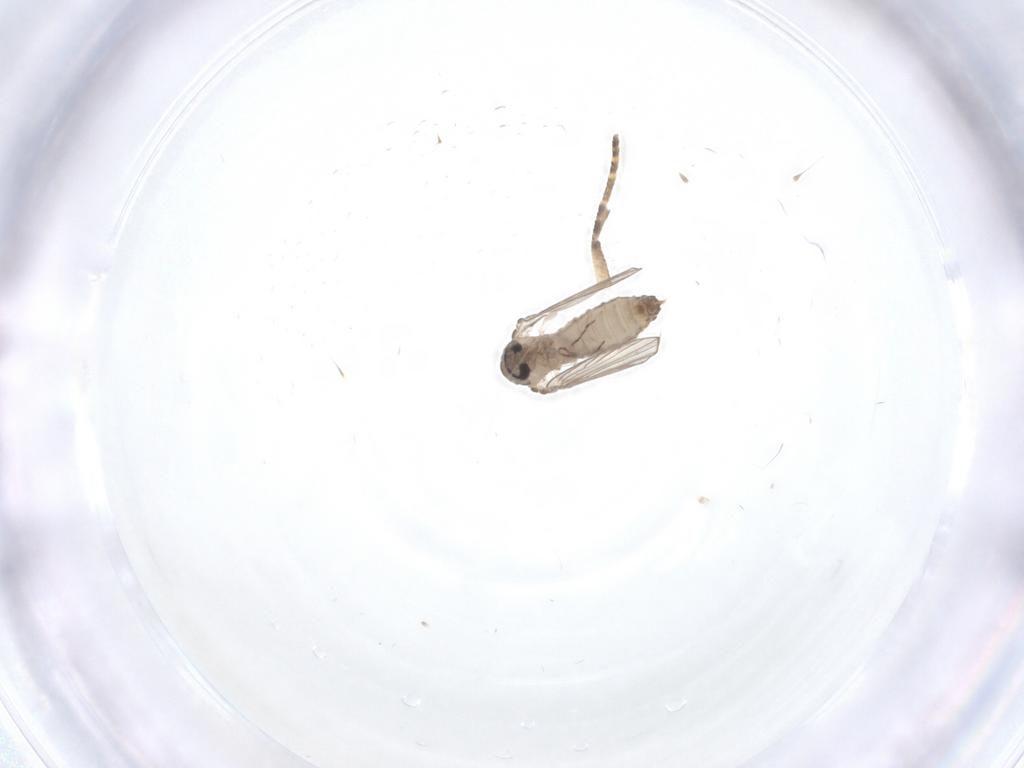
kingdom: Animalia
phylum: Arthropoda
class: Insecta
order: Diptera
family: Psychodidae
